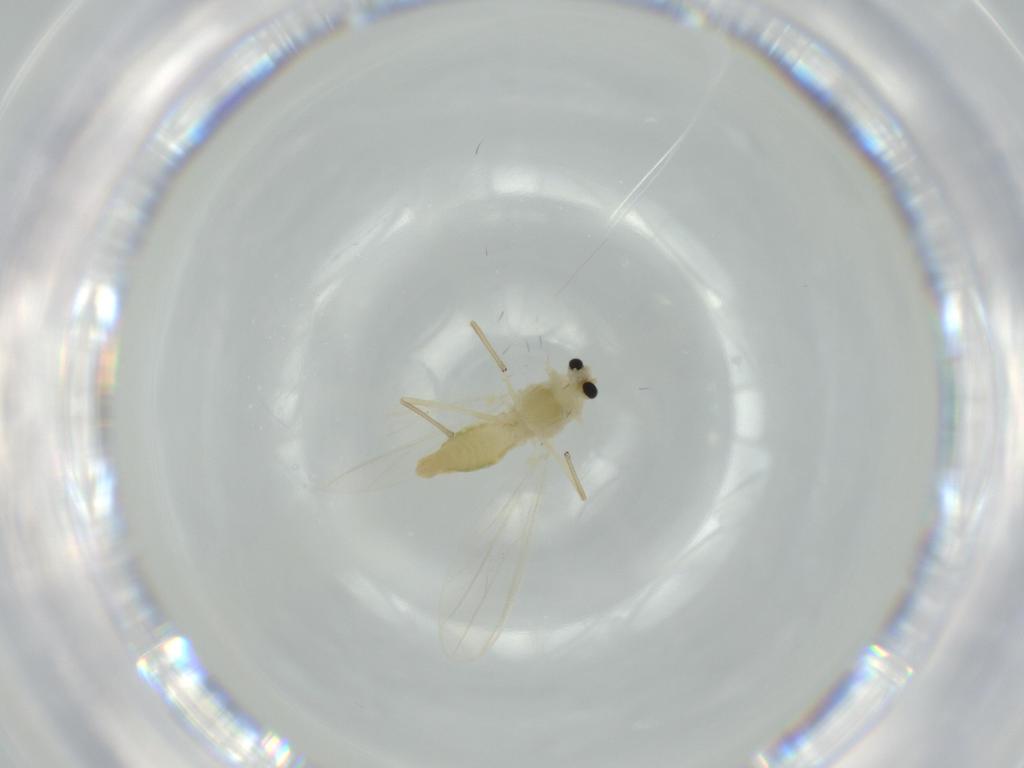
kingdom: Animalia
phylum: Arthropoda
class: Insecta
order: Diptera
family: Chironomidae
